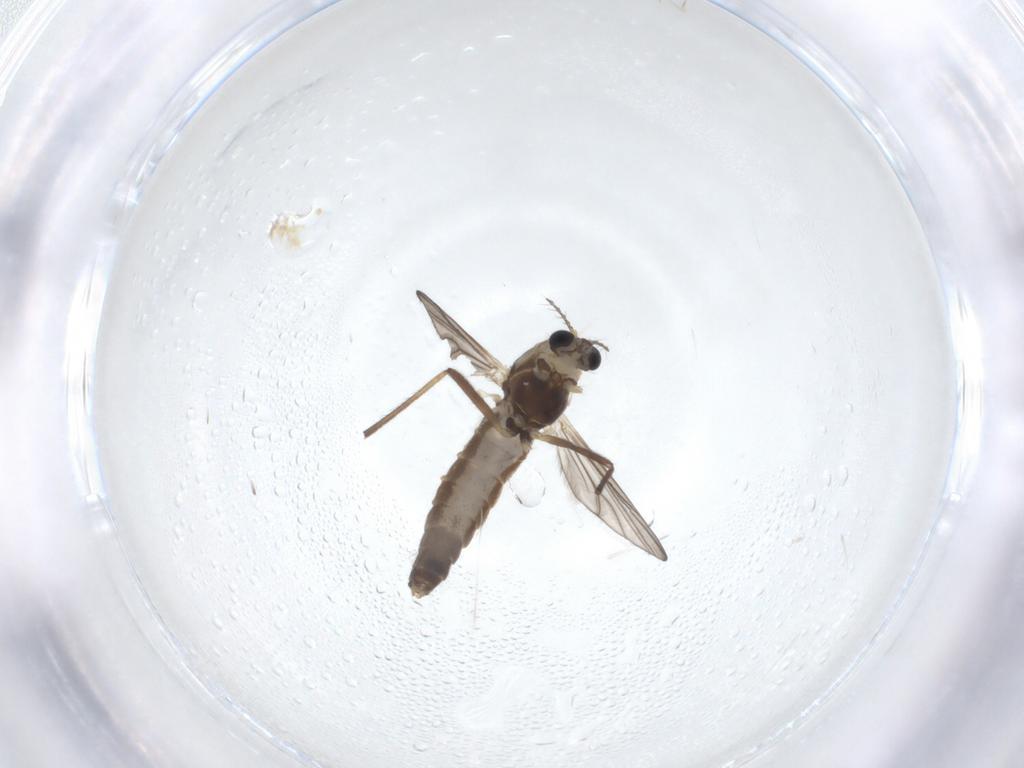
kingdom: Animalia
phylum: Arthropoda
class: Insecta
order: Diptera
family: Chironomidae
